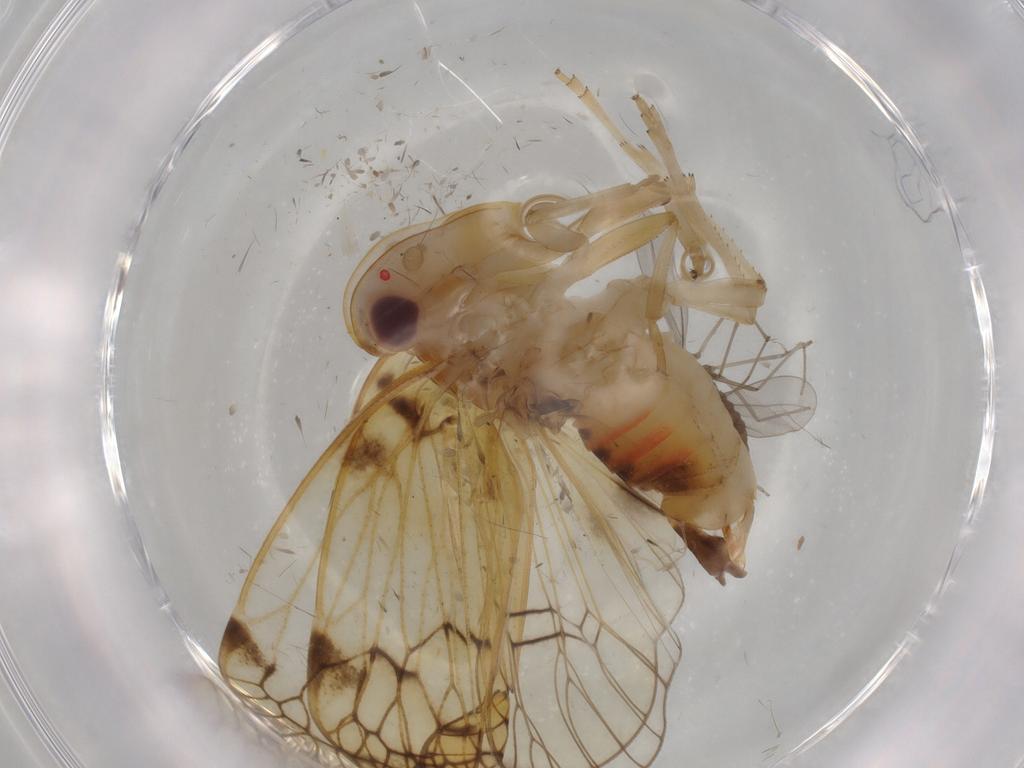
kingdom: Animalia
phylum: Arthropoda
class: Insecta
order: Hemiptera
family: Cixiidae
